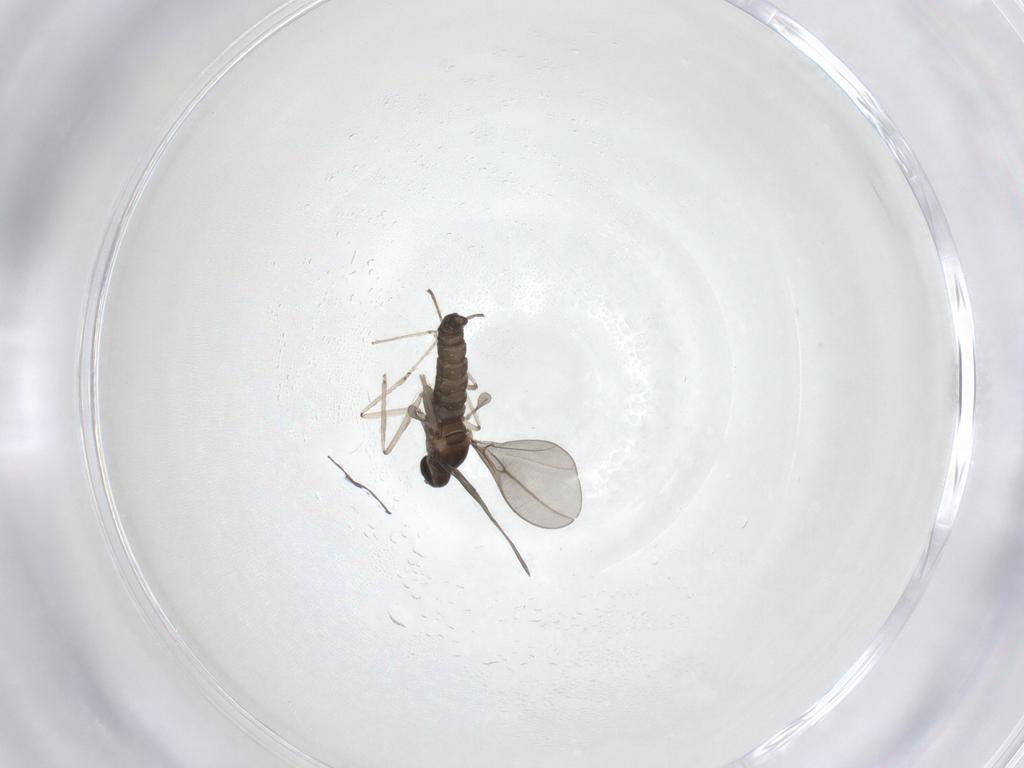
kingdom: Animalia
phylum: Arthropoda
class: Insecta
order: Diptera
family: Cecidomyiidae
